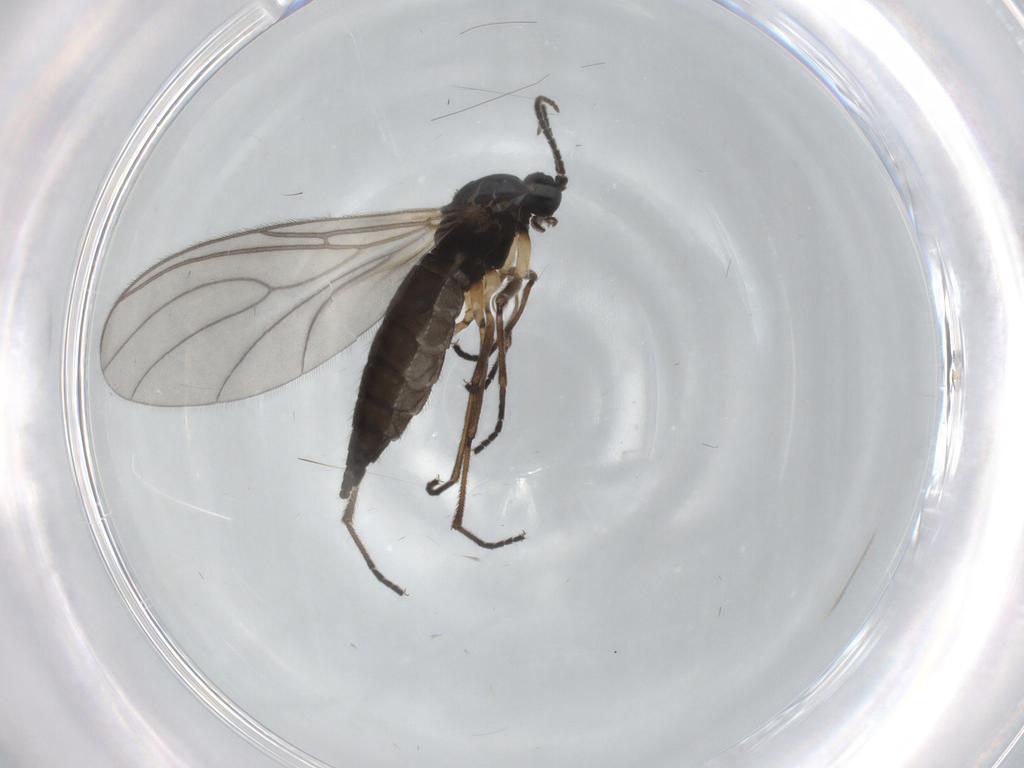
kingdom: Animalia
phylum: Arthropoda
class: Insecta
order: Diptera
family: Sciaridae
